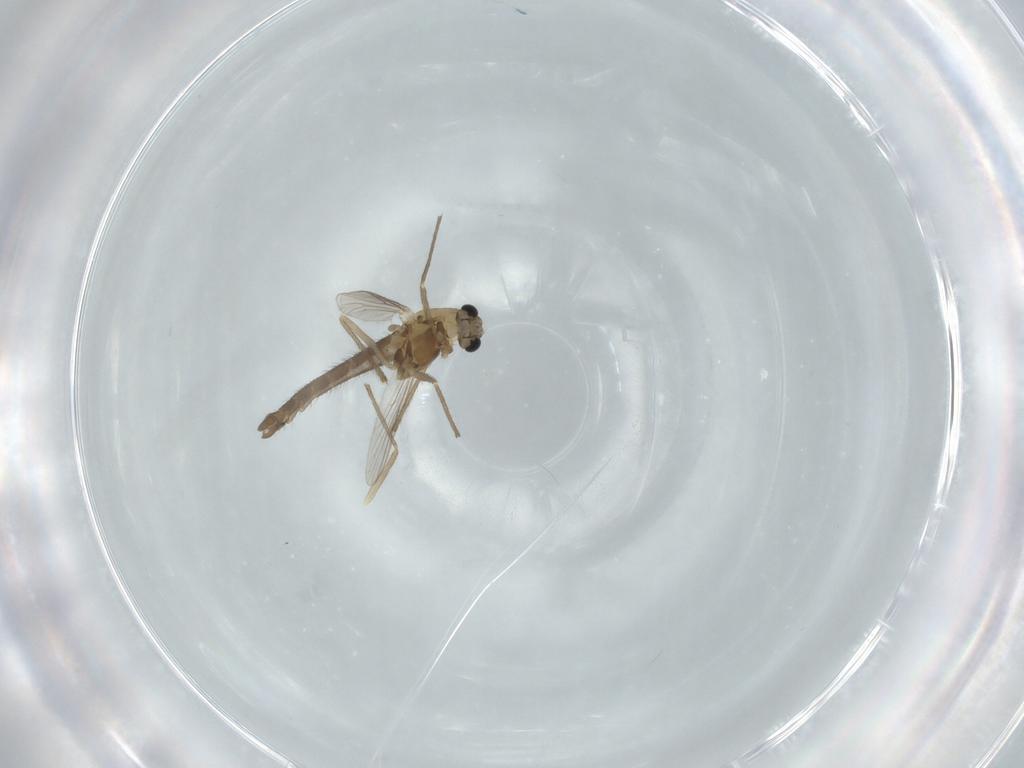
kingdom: Animalia
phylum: Arthropoda
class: Insecta
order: Diptera
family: Chironomidae
